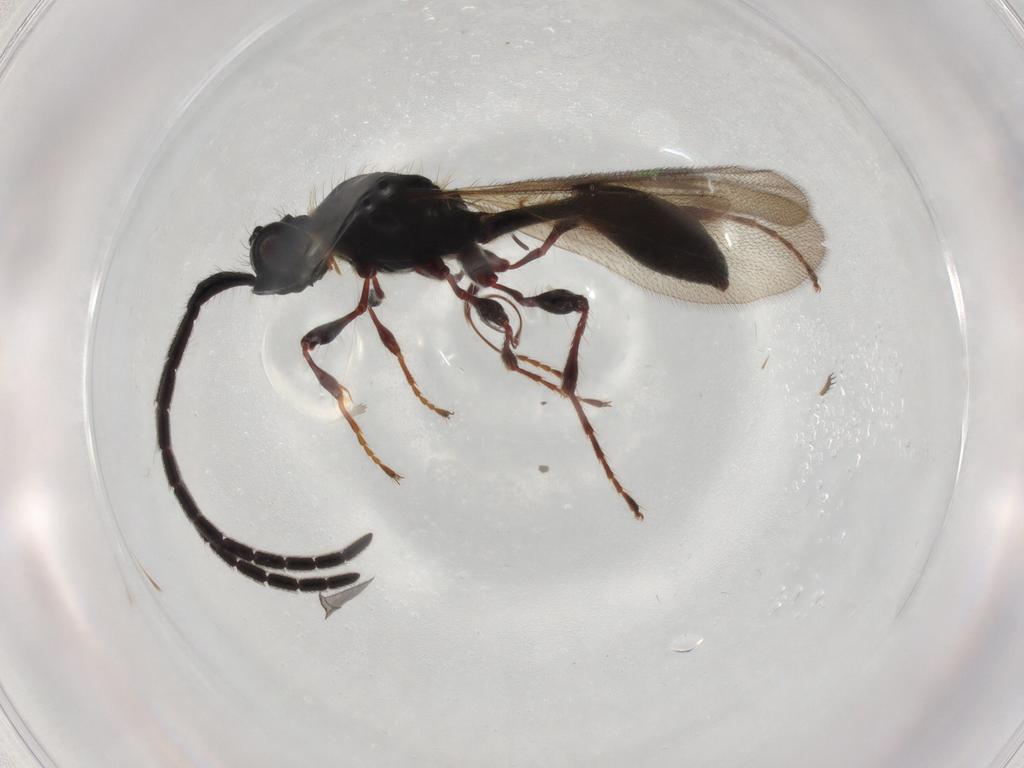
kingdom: Animalia
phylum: Arthropoda
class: Insecta
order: Hymenoptera
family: Diapriidae
